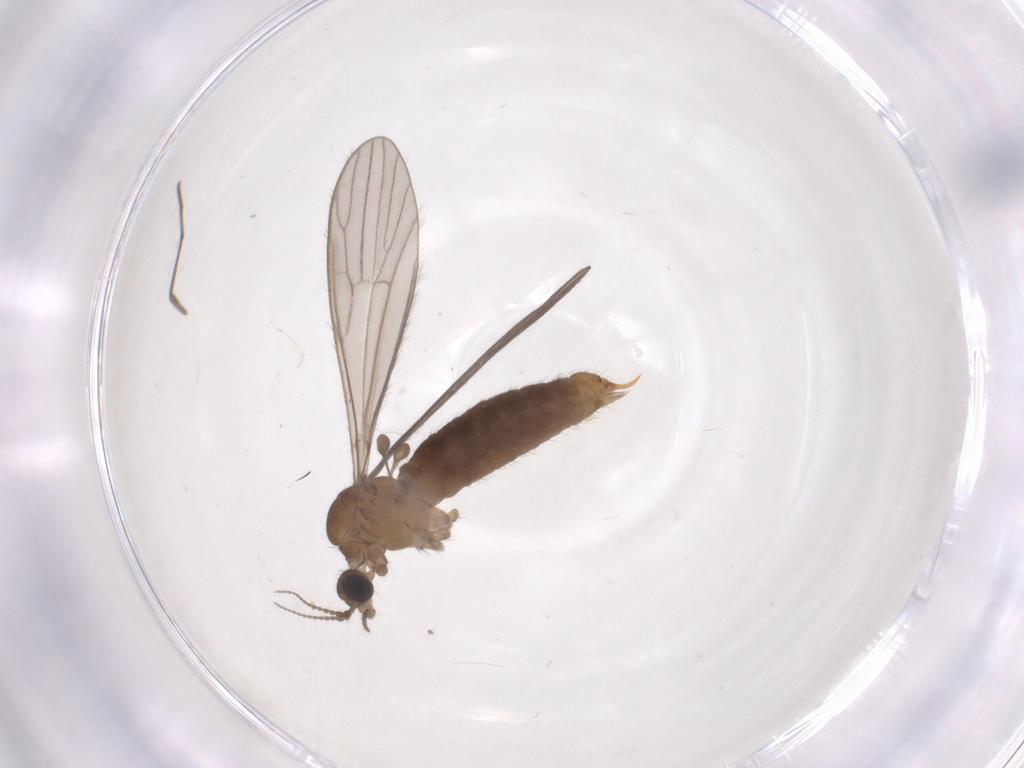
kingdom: Animalia
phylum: Arthropoda
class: Insecta
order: Diptera
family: Limoniidae
